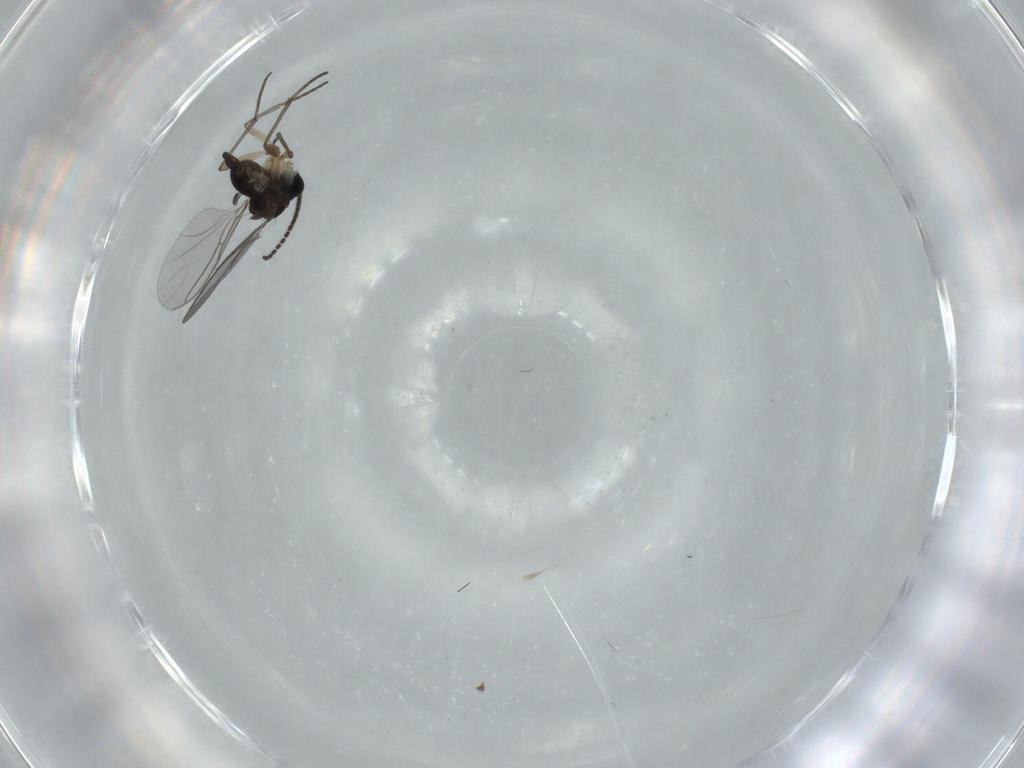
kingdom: Animalia
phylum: Arthropoda
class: Insecta
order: Diptera
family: Sciaridae
